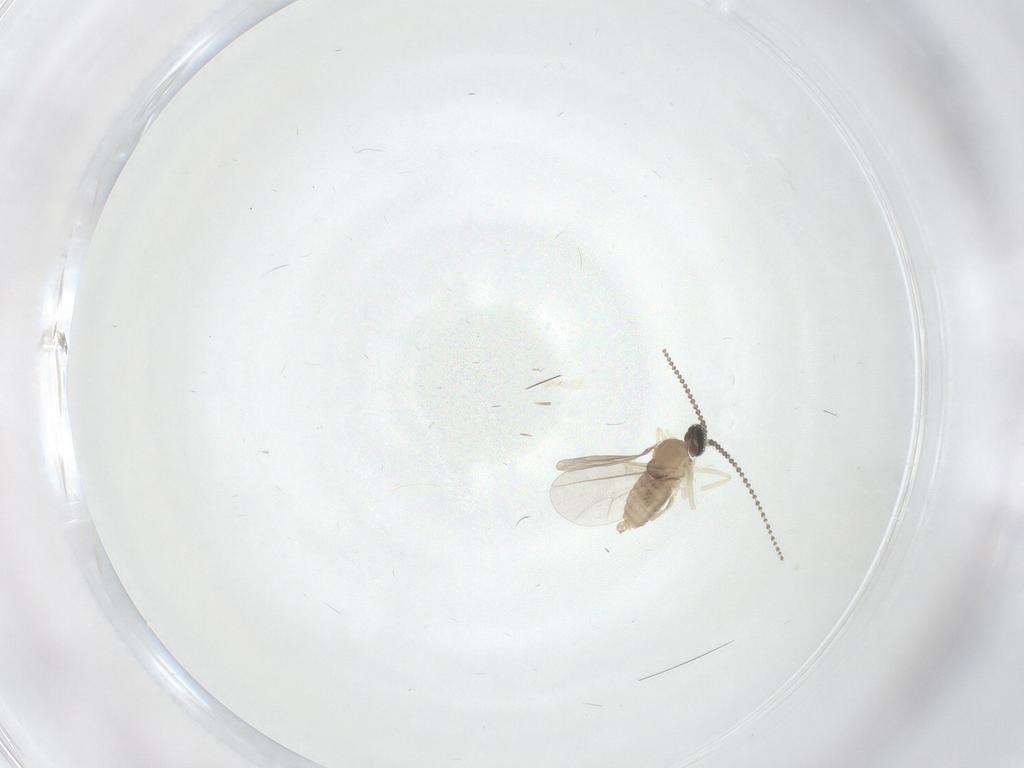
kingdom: Animalia
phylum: Arthropoda
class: Insecta
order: Diptera
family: Cecidomyiidae
